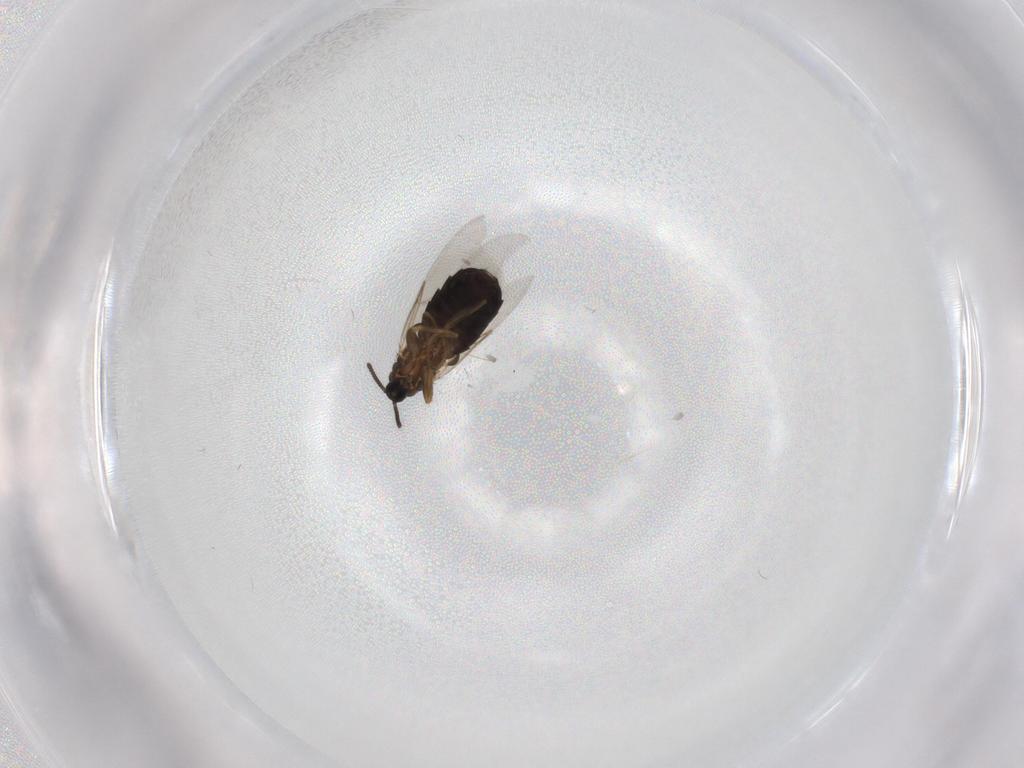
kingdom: Animalia
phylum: Arthropoda
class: Insecta
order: Diptera
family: Scatopsidae
